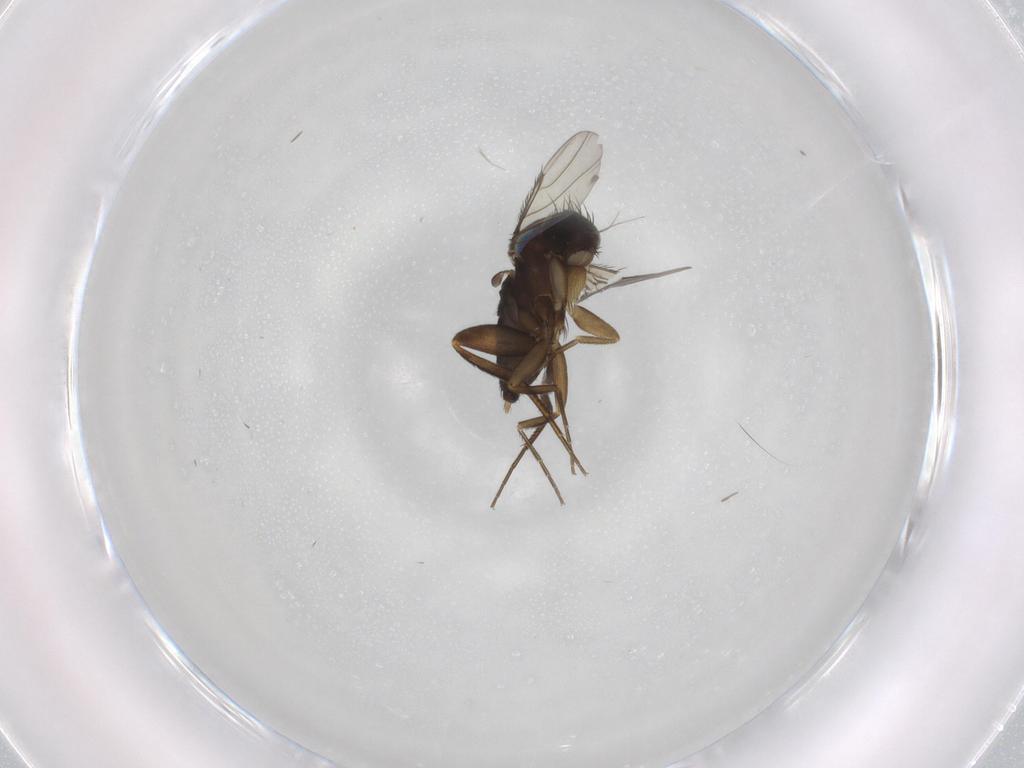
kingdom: Animalia
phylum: Arthropoda
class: Insecta
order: Diptera
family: Phoridae
